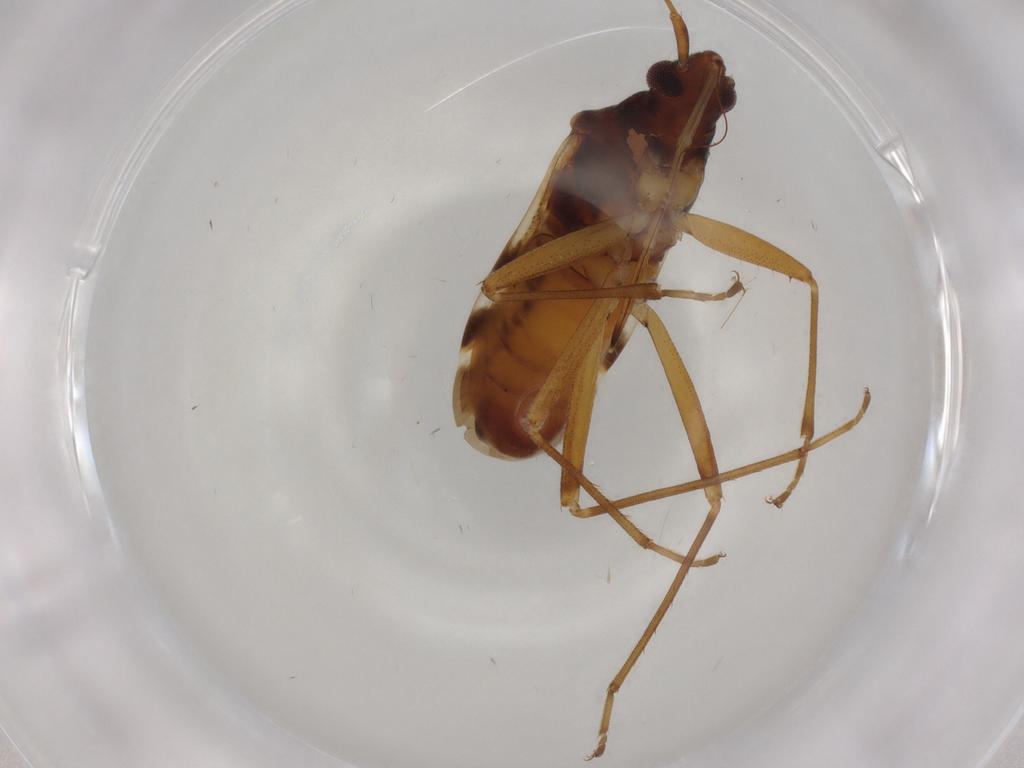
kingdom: Animalia
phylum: Arthropoda
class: Insecta
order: Hemiptera
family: Rhyparochromidae
